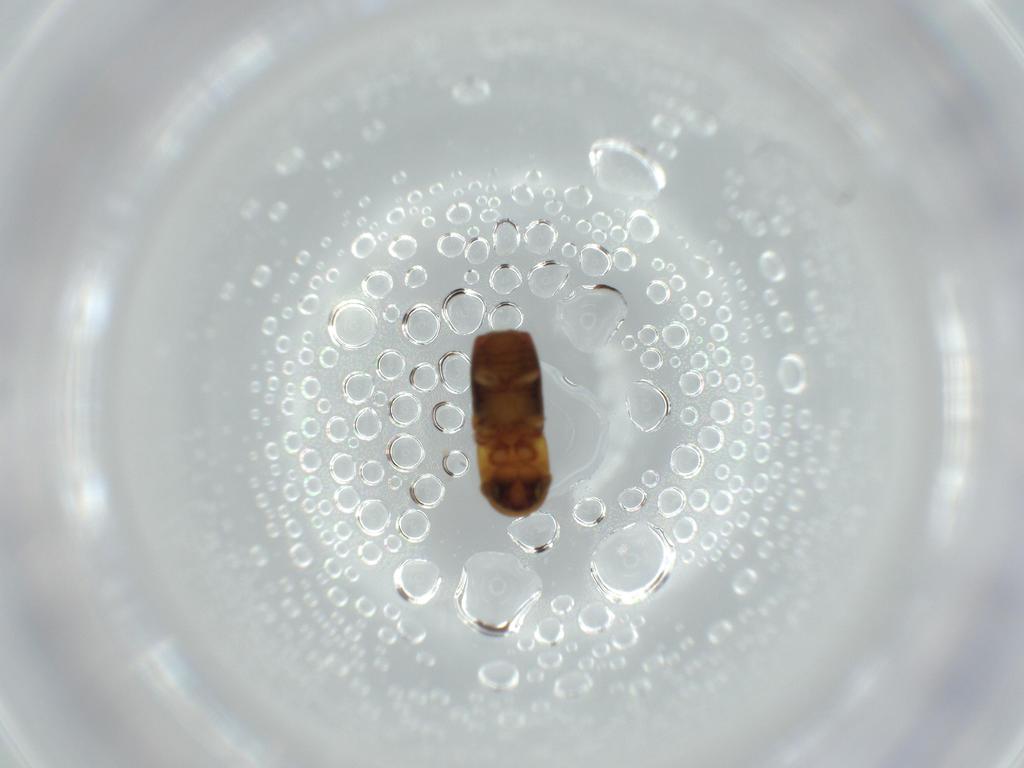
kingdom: Animalia
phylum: Arthropoda
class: Insecta
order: Coleoptera
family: Curculionidae
